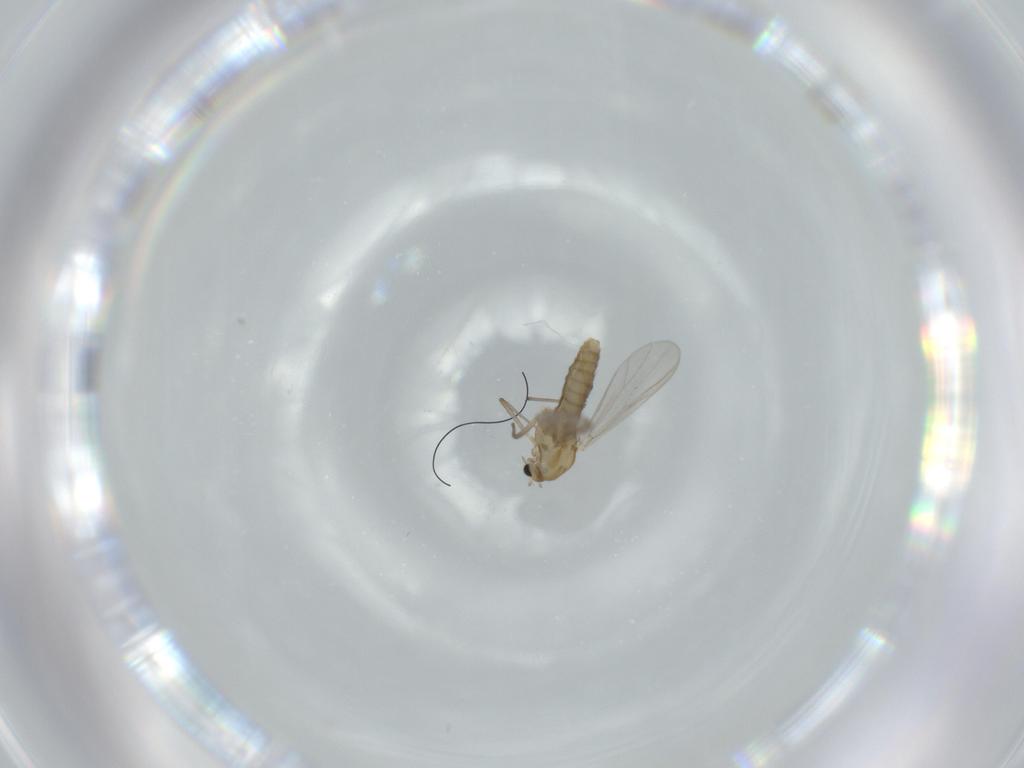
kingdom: Animalia
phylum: Arthropoda
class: Insecta
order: Diptera
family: Chironomidae
